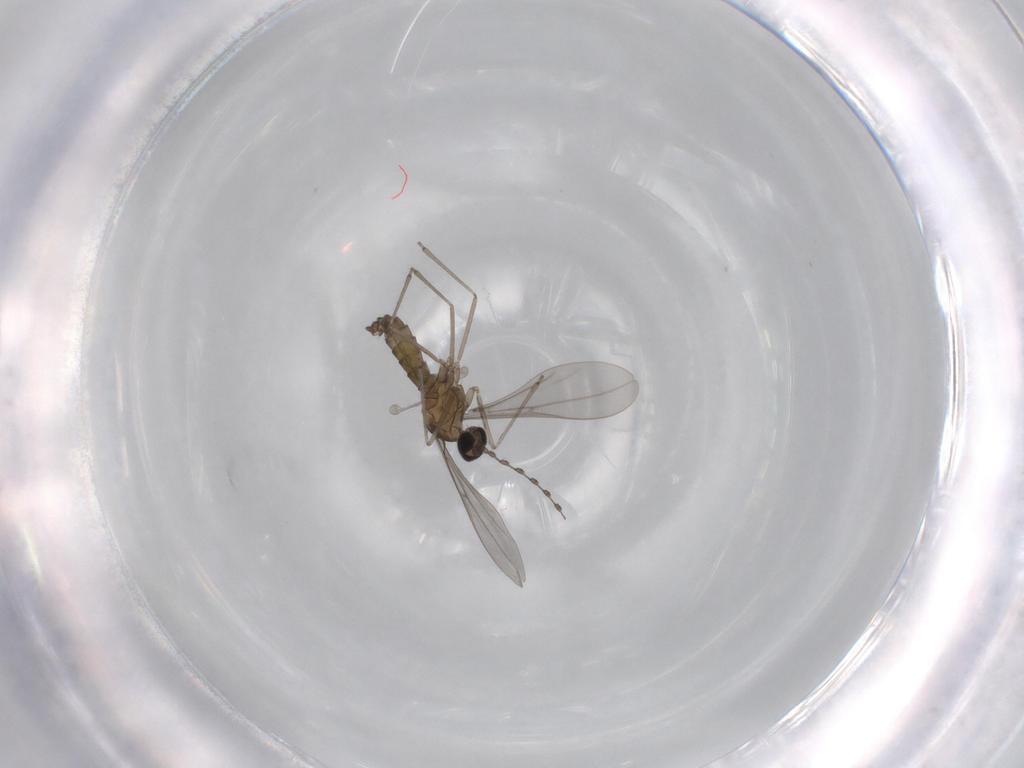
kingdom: Animalia
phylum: Arthropoda
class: Insecta
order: Diptera
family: Cecidomyiidae
